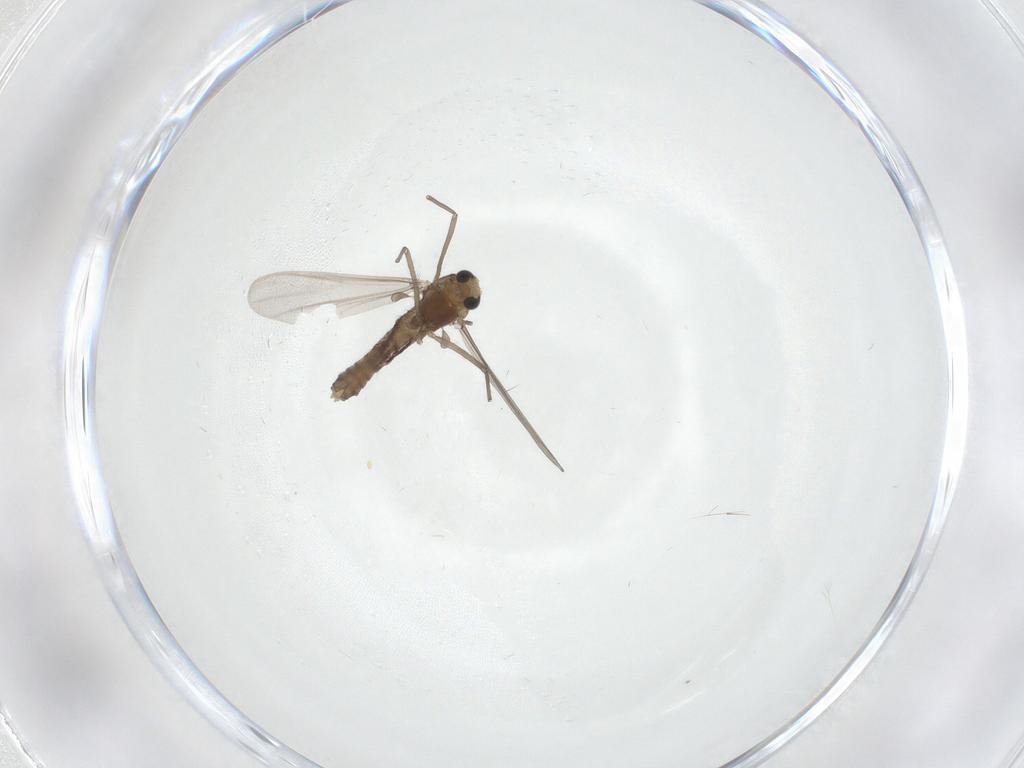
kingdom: Animalia
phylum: Arthropoda
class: Insecta
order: Diptera
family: Chironomidae
